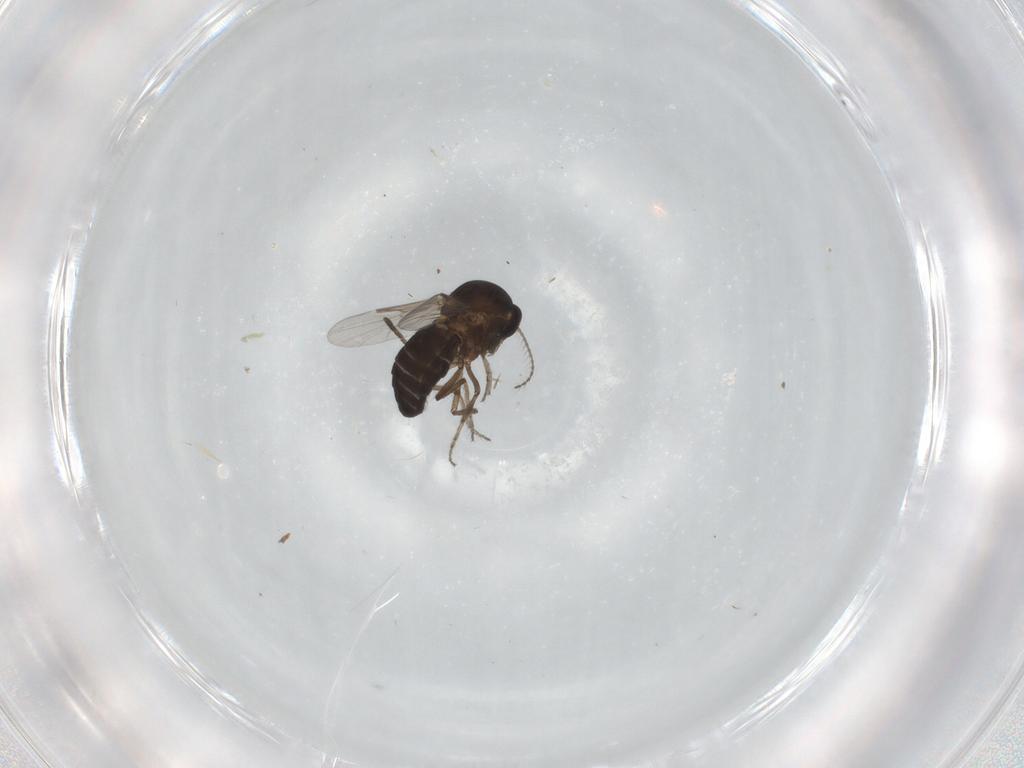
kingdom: Animalia
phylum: Arthropoda
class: Insecta
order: Diptera
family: Ceratopogonidae
